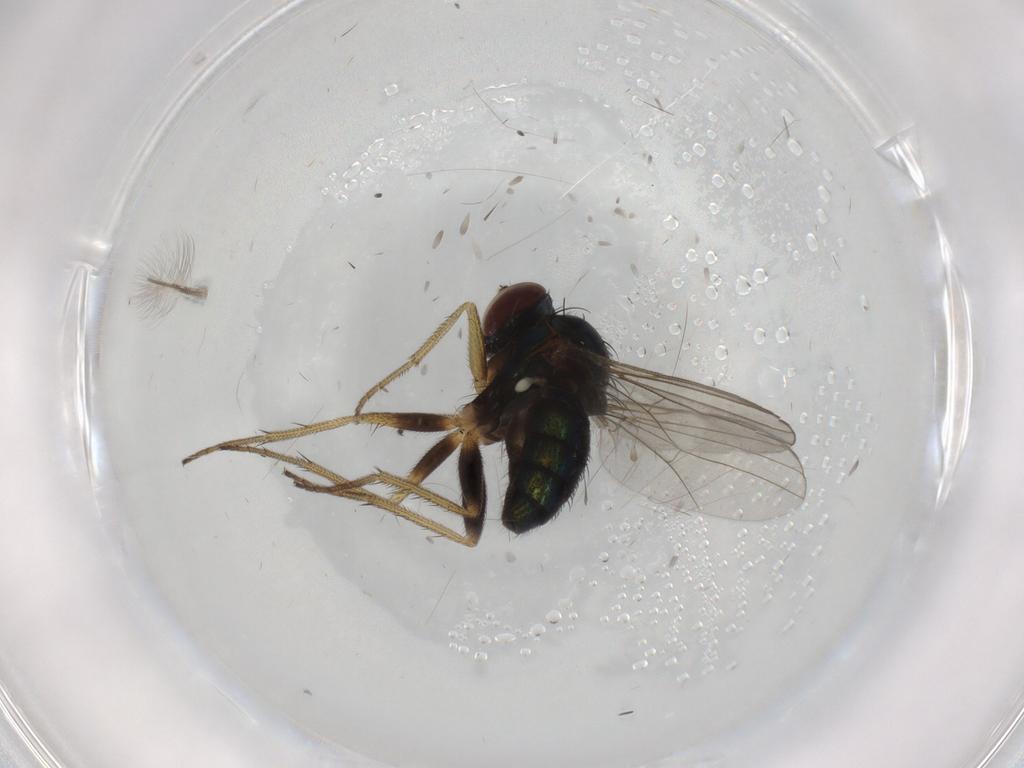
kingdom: Animalia
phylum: Arthropoda
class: Insecta
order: Diptera
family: Dolichopodidae
